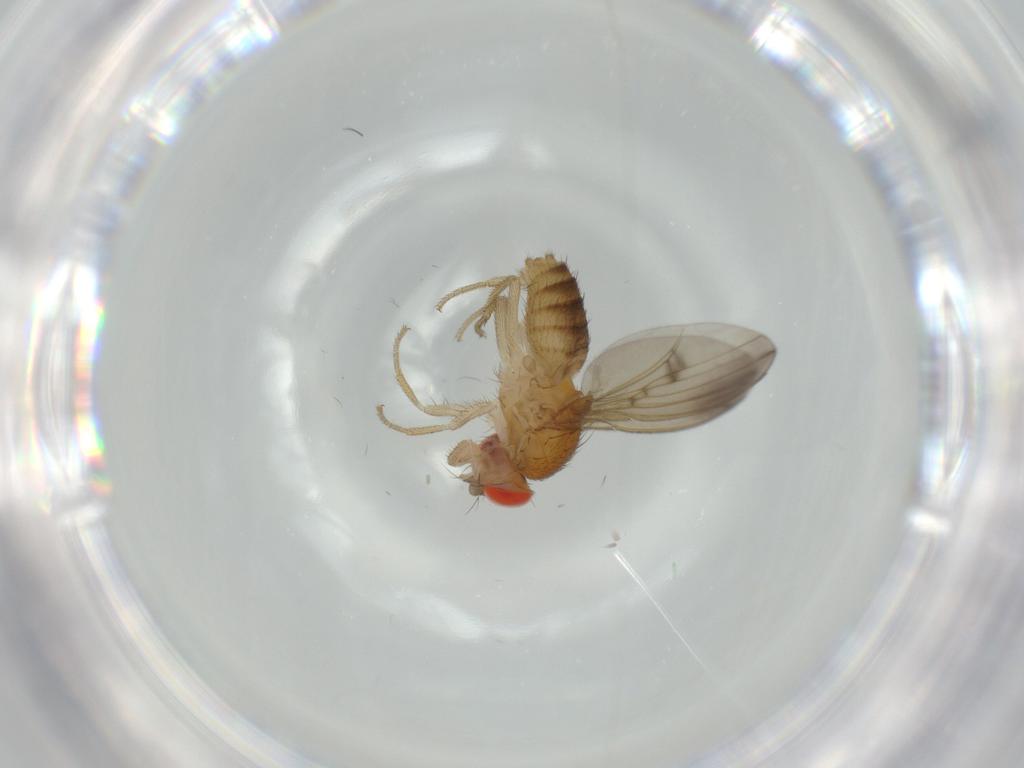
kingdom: Animalia
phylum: Arthropoda
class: Insecta
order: Diptera
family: Drosophilidae
